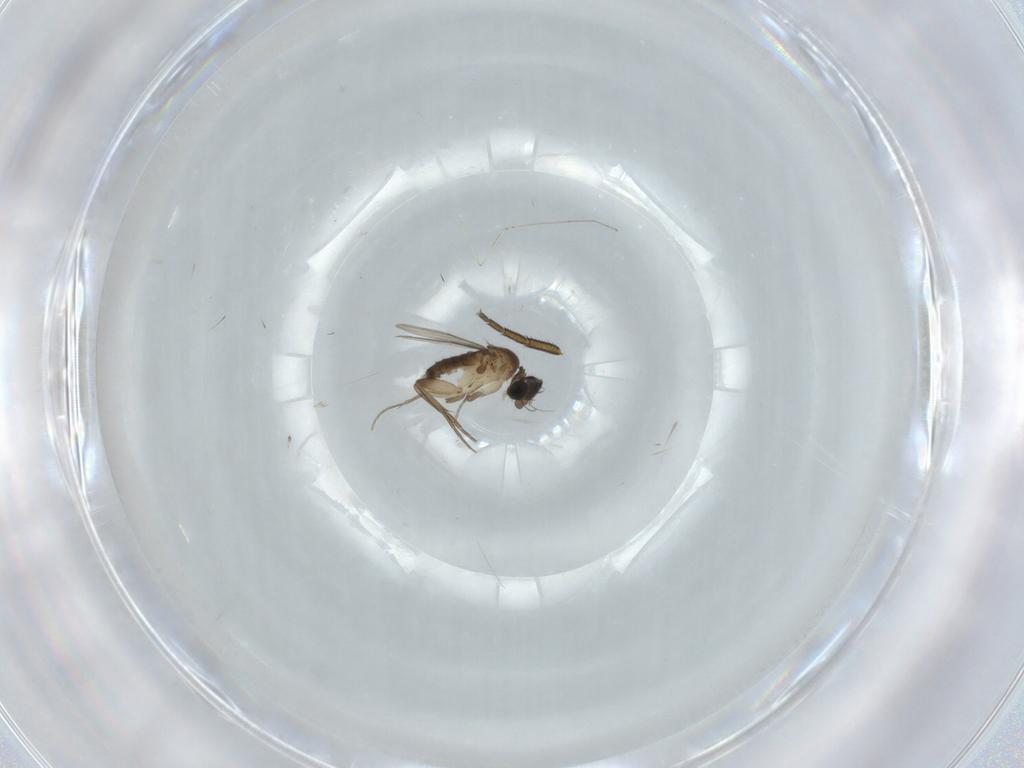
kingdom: Animalia
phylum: Arthropoda
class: Insecta
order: Diptera
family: Phoridae
